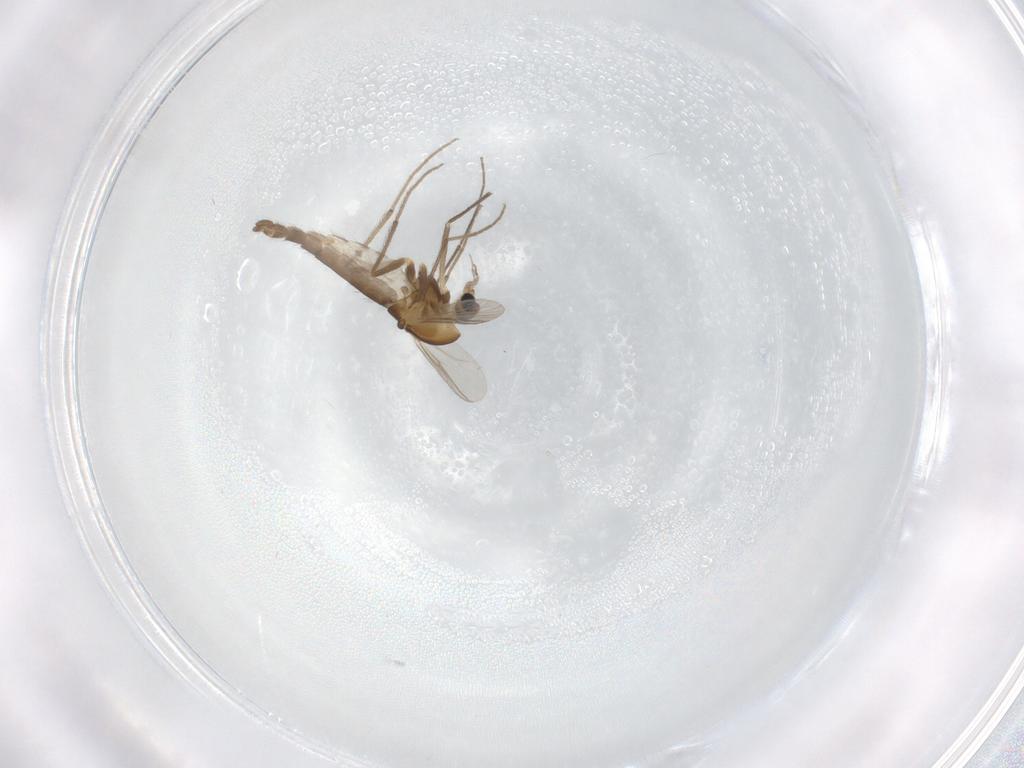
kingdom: Animalia
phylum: Arthropoda
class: Insecta
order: Diptera
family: Chironomidae
